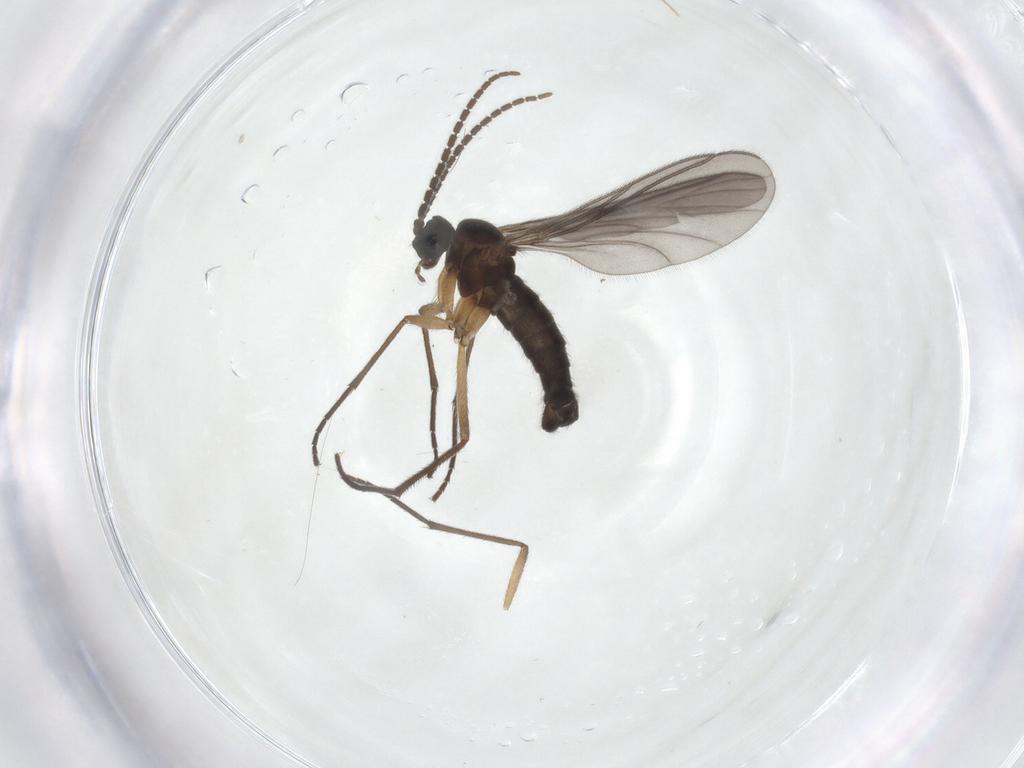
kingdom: Animalia
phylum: Arthropoda
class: Insecta
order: Diptera
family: Sciaridae
